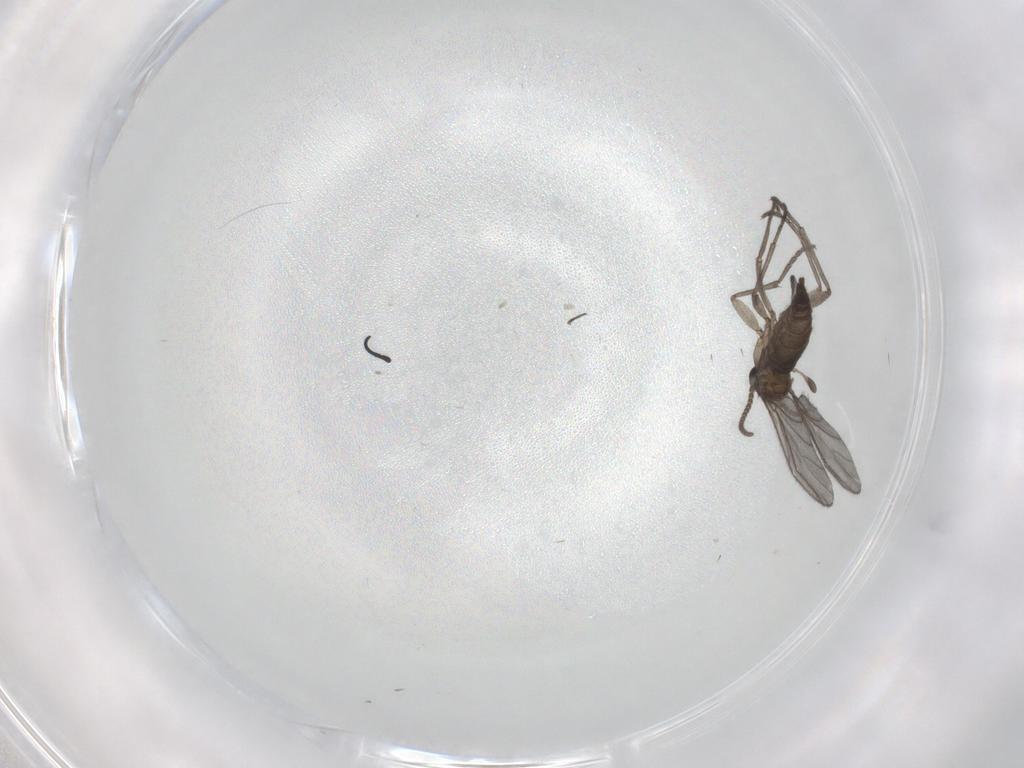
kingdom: Animalia
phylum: Arthropoda
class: Insecta
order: Diptera
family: Sciaridae
